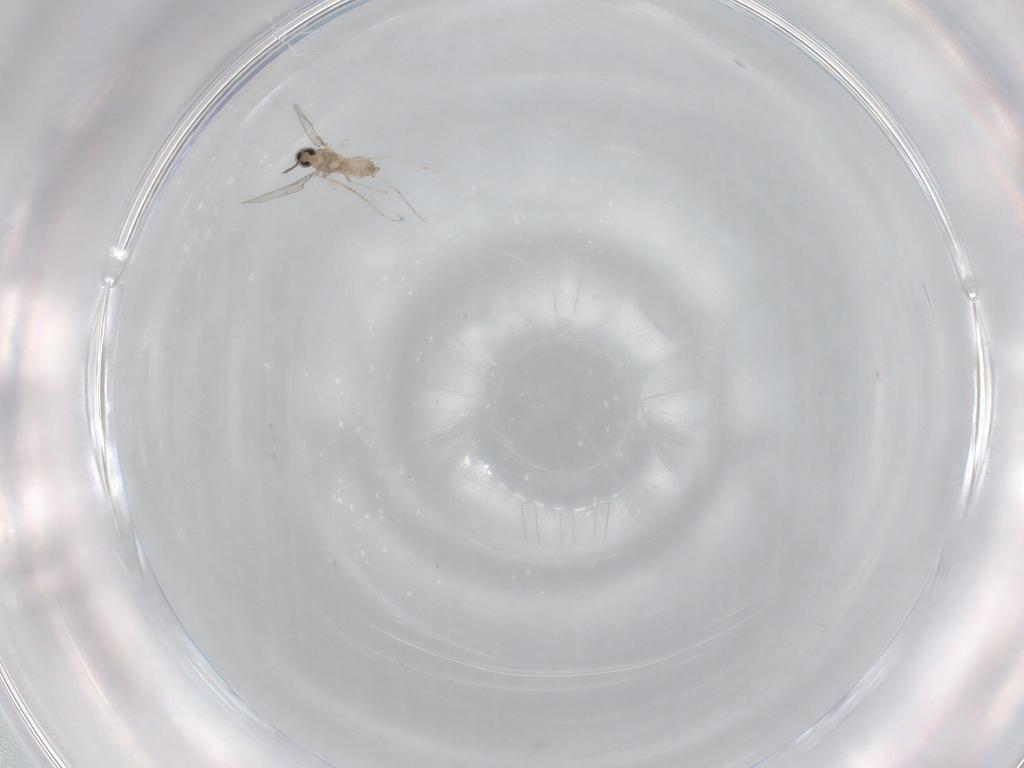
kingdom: Animalia
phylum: Arthropoda
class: Insecta
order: Diptera
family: Cecidomyiidae
